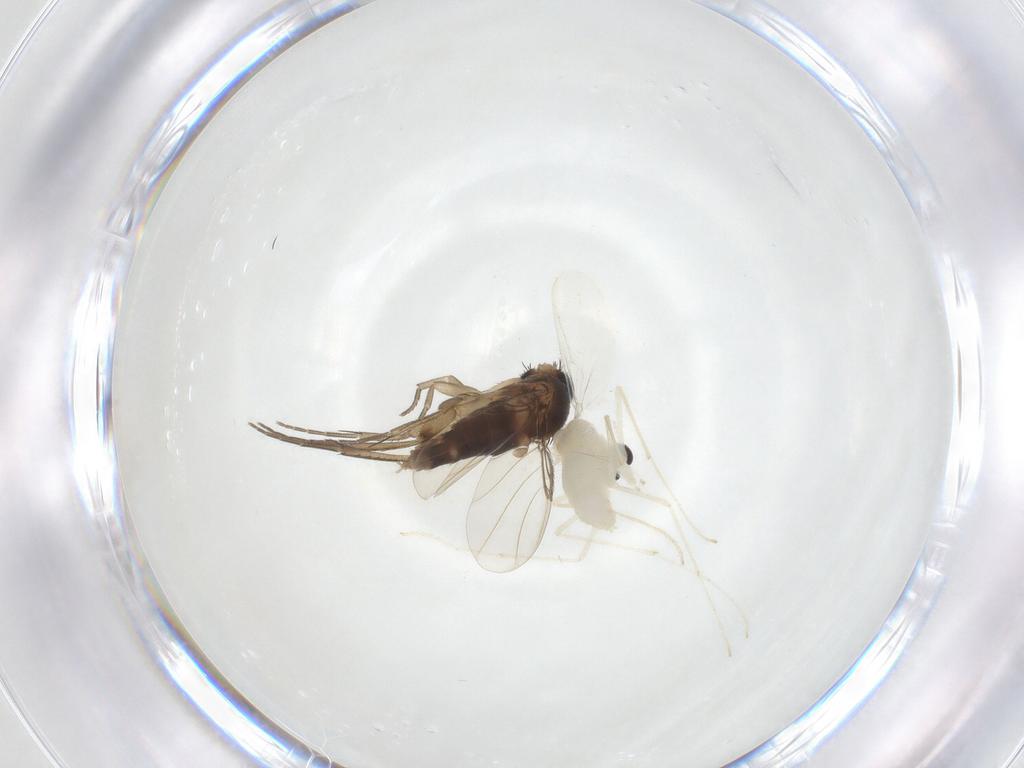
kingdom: Animalia
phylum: Arthropoda
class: Insecta
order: Diptera
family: Chironomidae
